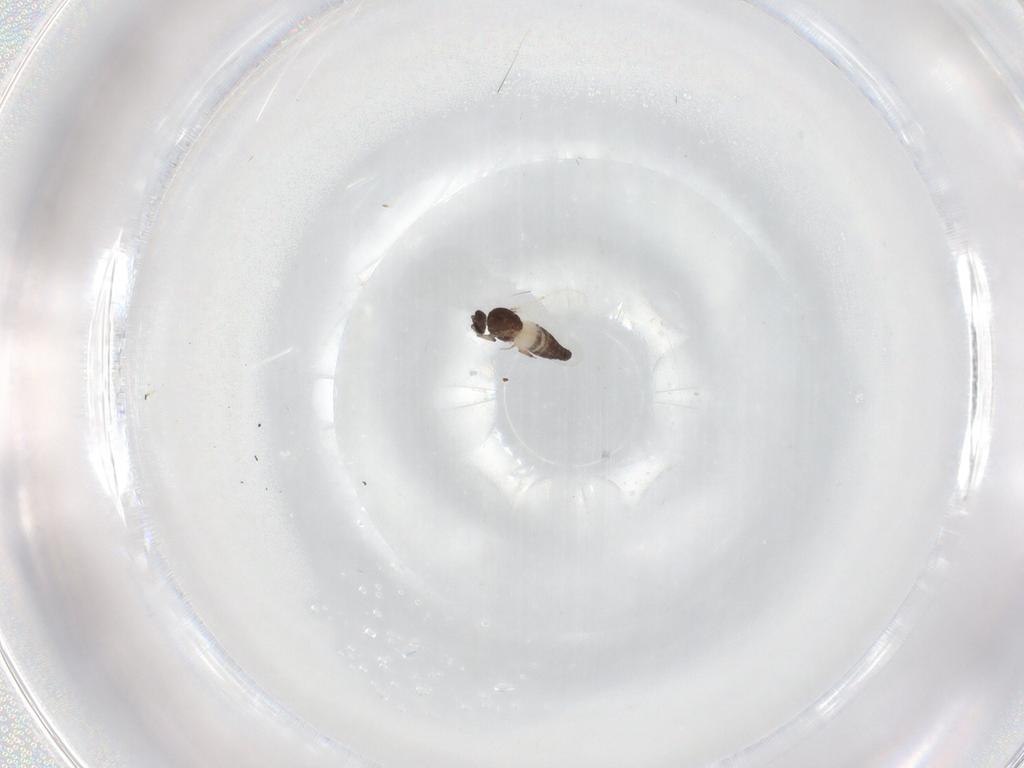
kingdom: Animalia
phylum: Arthropoda
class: Insecta
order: Diptera
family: Ceratopogonidae
